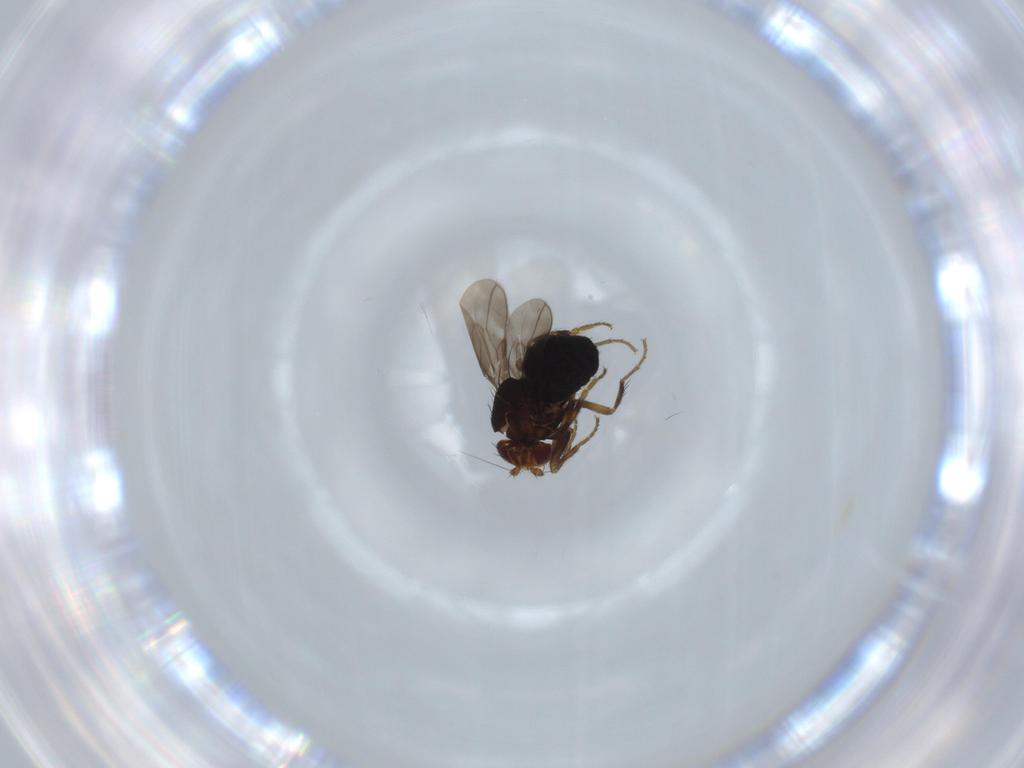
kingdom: Animalia
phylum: Arthropoda
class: Insecta
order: Diptera
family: Sphaeroceridae
